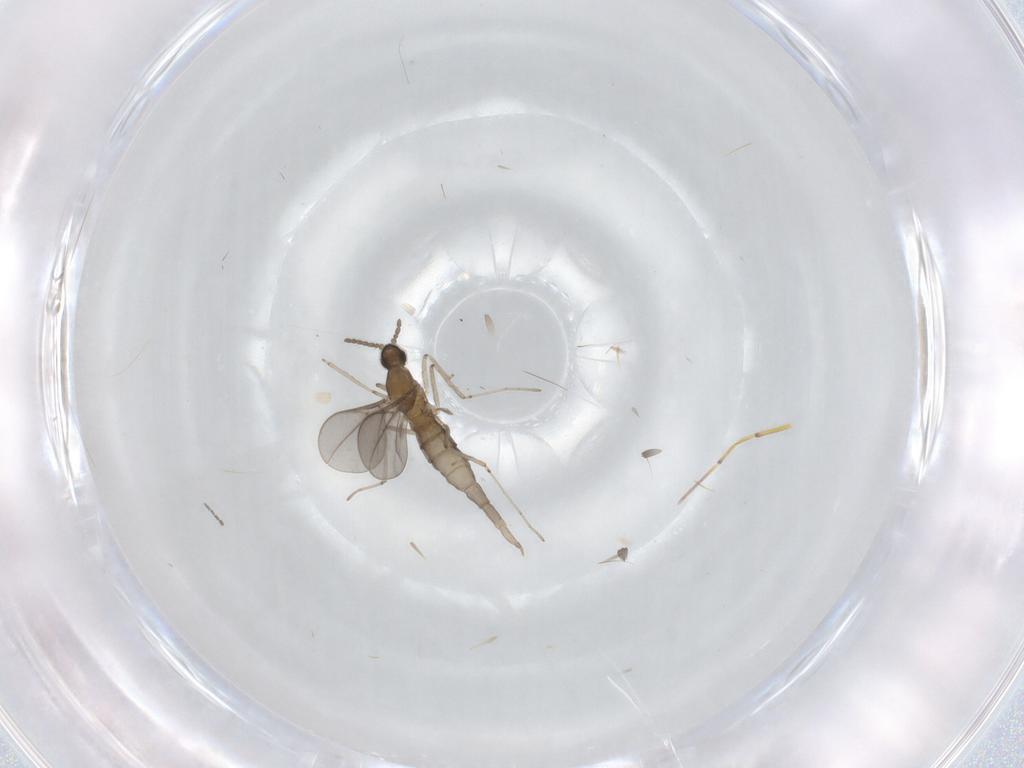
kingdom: Animalia
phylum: Arthropoda
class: Insecta
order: Diptera
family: Cecidomyiidae
